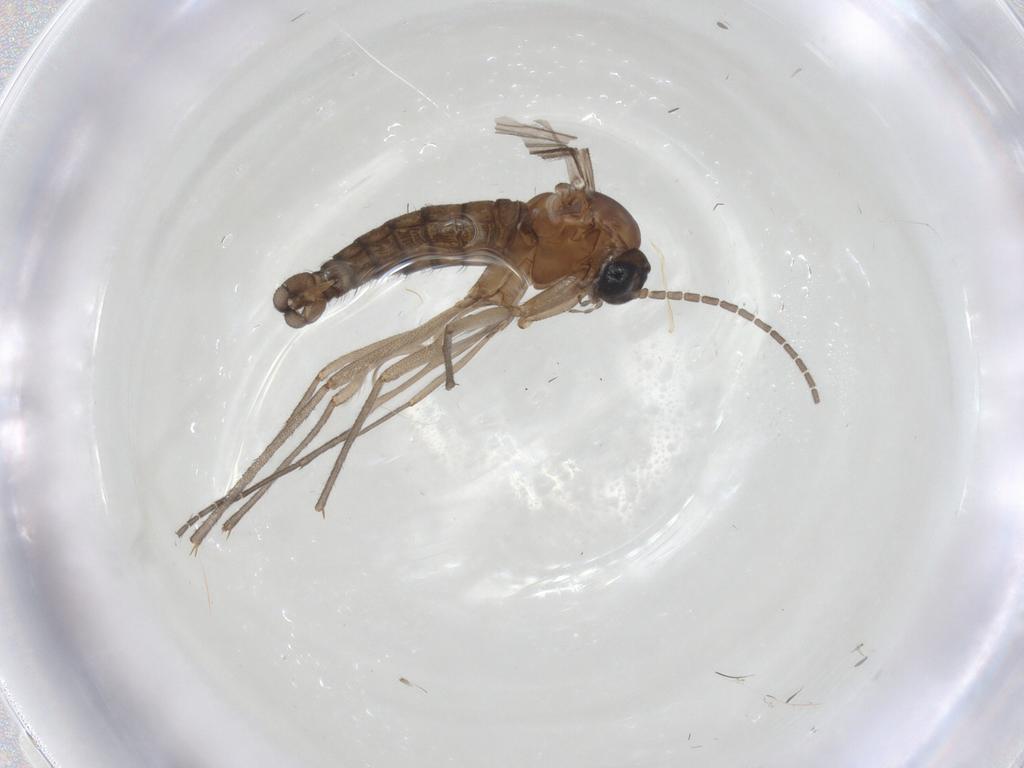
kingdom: Animalia
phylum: Arthropoda
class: Insecta
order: Diptera
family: Sciaridae
